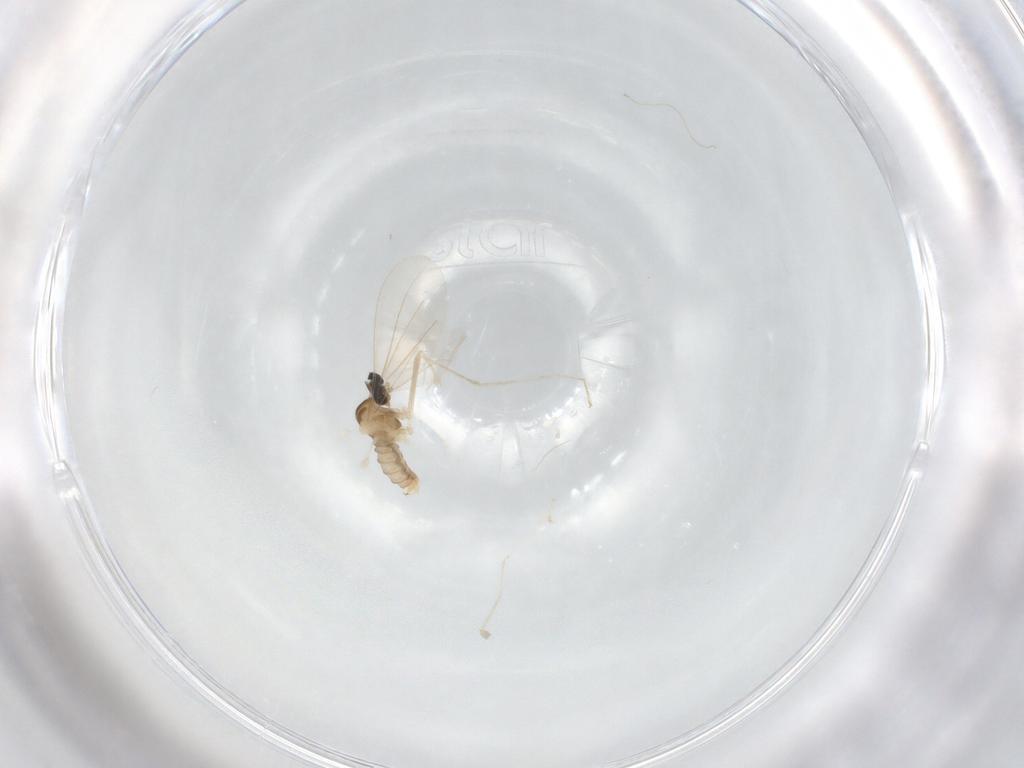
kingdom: Animalia
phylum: Arthropoda
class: Insecta
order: Diptera
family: Cecidomyiidae
